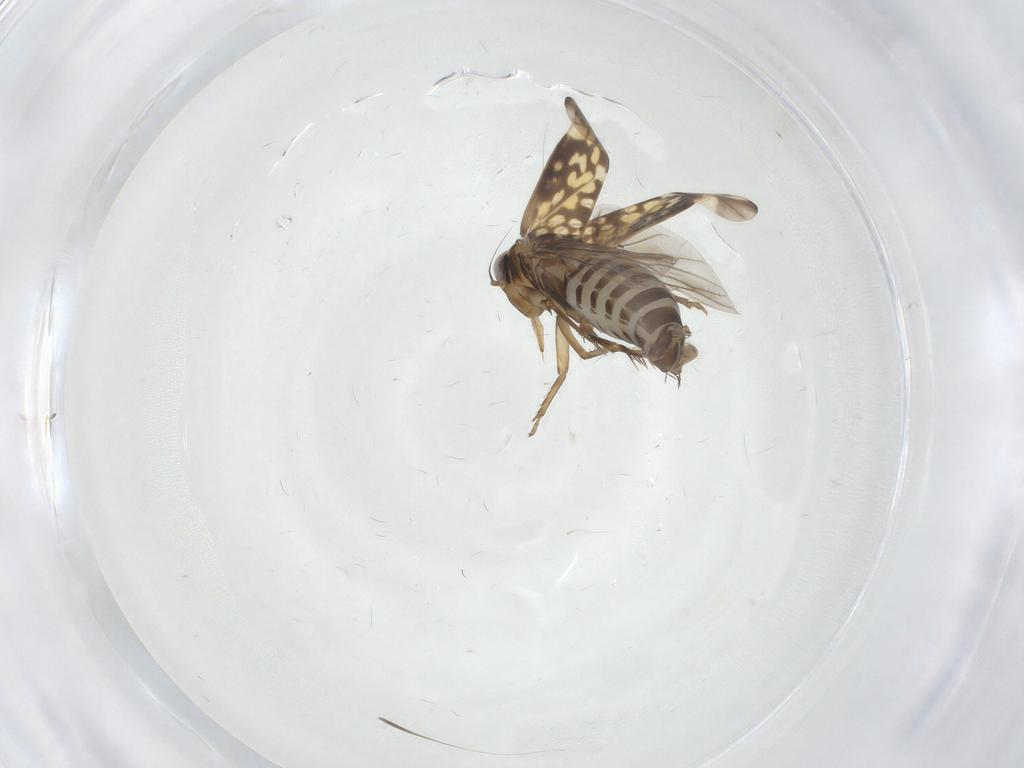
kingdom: Animalia
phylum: Arthropoda
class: Insecta
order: Hemiptera
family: Cicadellidae
